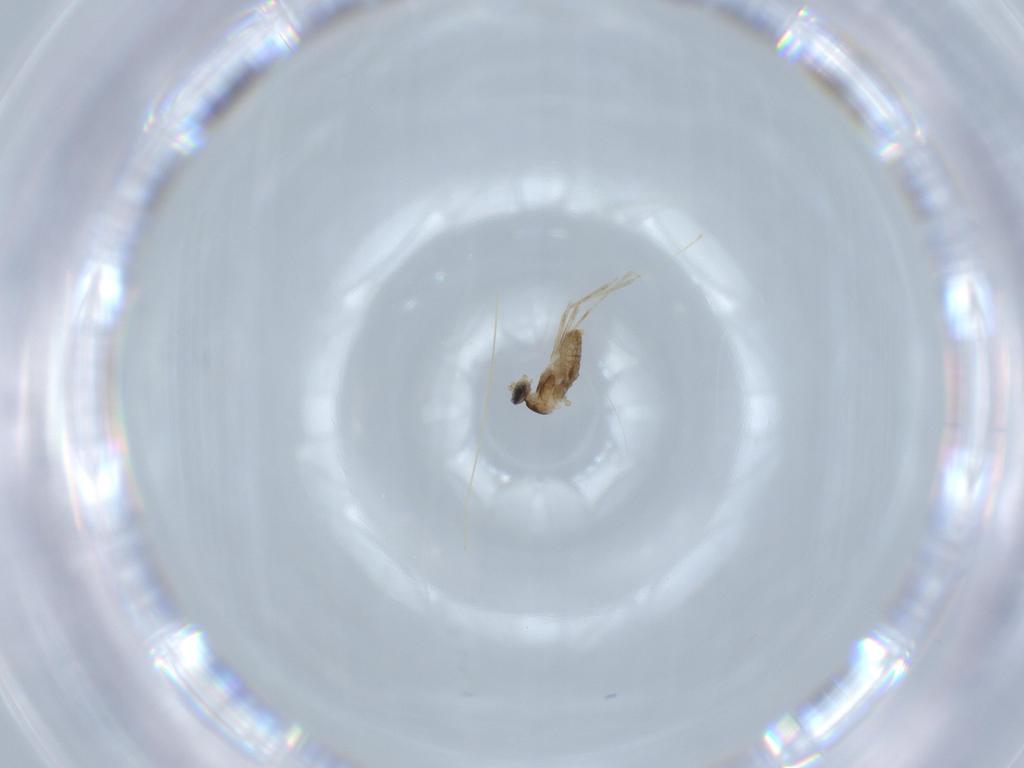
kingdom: Animalia
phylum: Arthropoda
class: Insecta
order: Diptera
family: Cecidomyiidae
